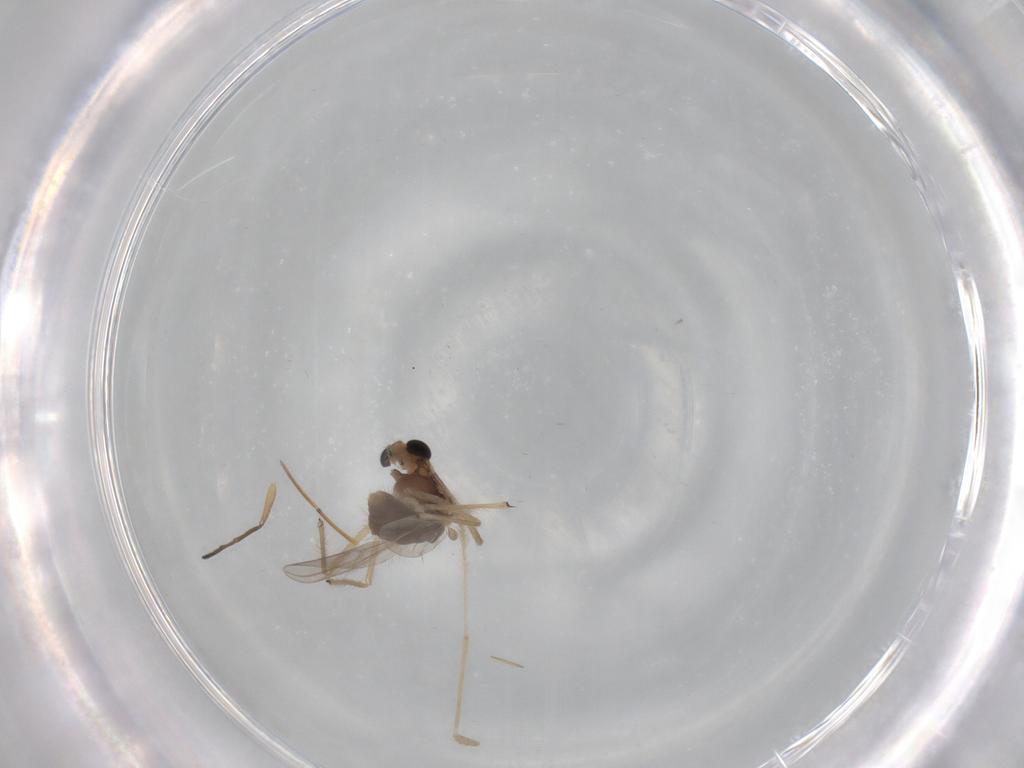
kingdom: Animalia
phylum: Arthropoda
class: Insecta
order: Diptera
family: Chironomidae
